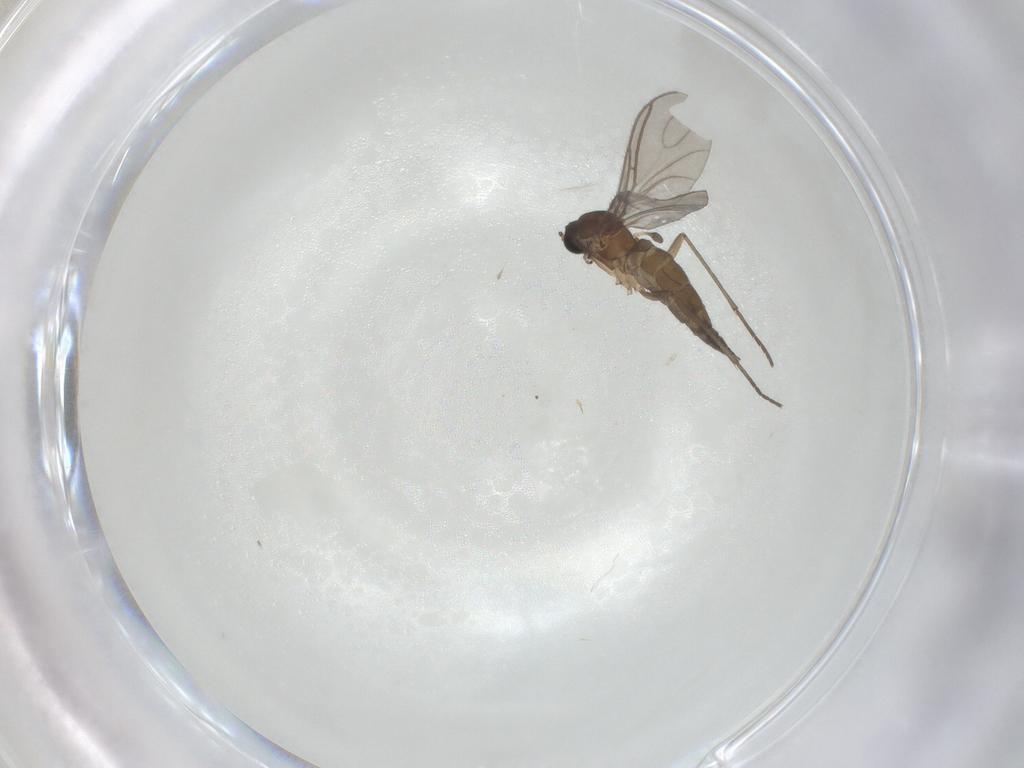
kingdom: Animalia
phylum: Arthropoda
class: Insecta
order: Diptera
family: Sciaridae
